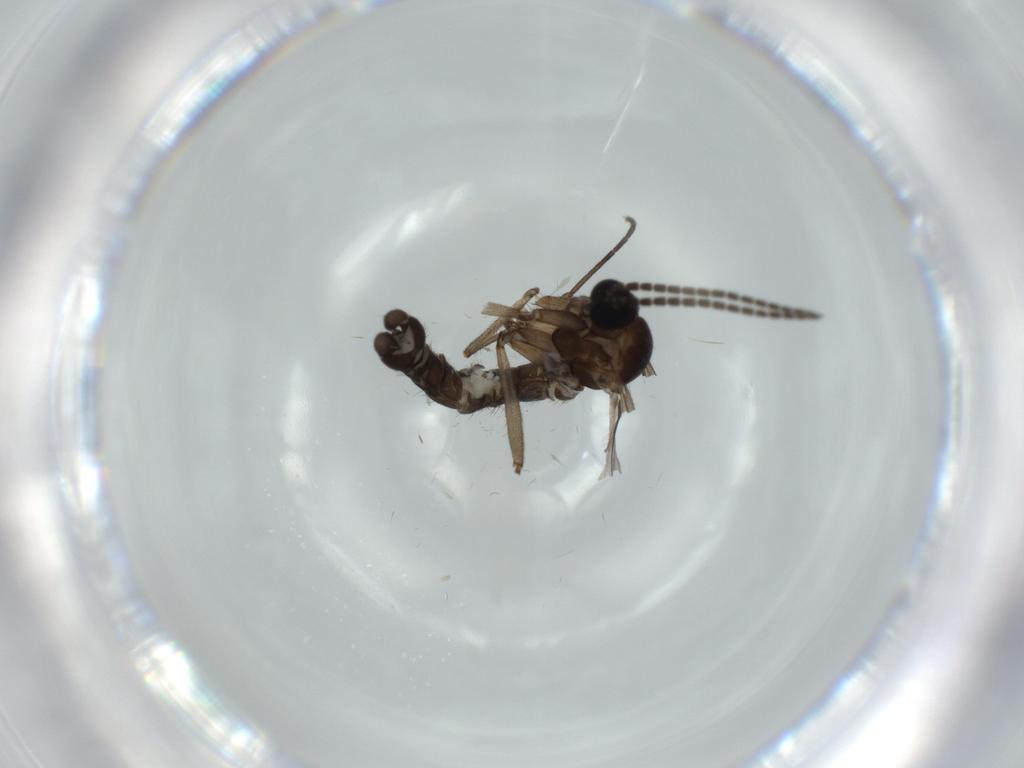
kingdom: Animalia
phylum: Arthropoda
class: Insecta
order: Diptera
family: Sciaridae
